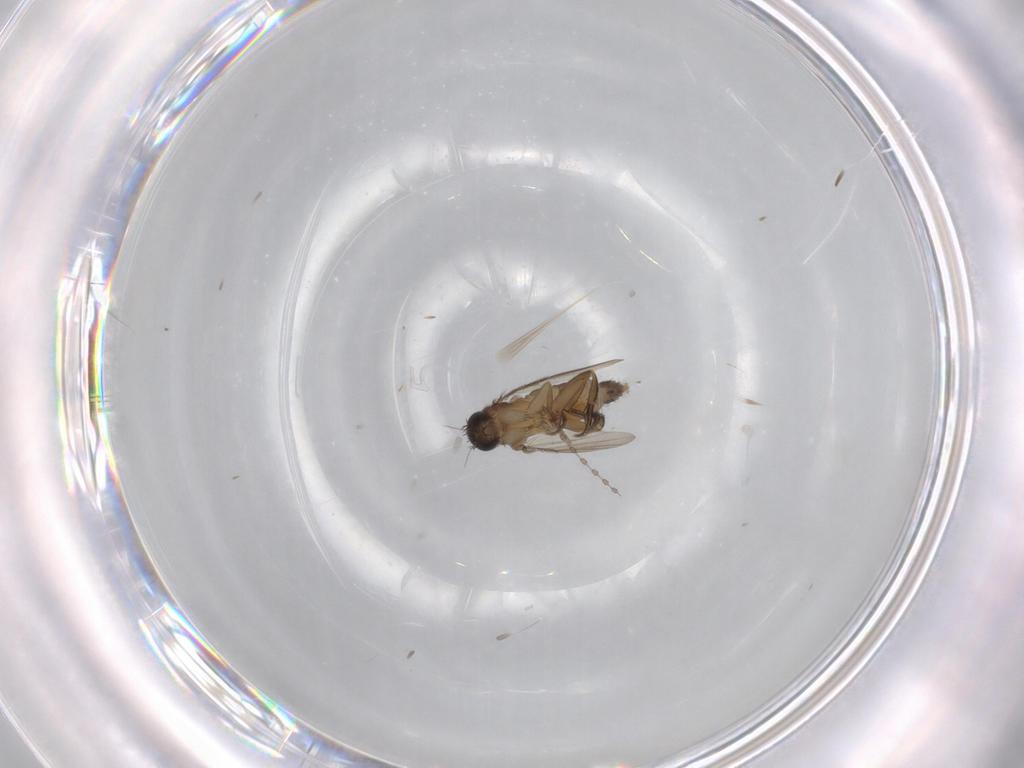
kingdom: Animalia
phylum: Arthropoda
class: Insecta
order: Diptera
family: Phoridae
